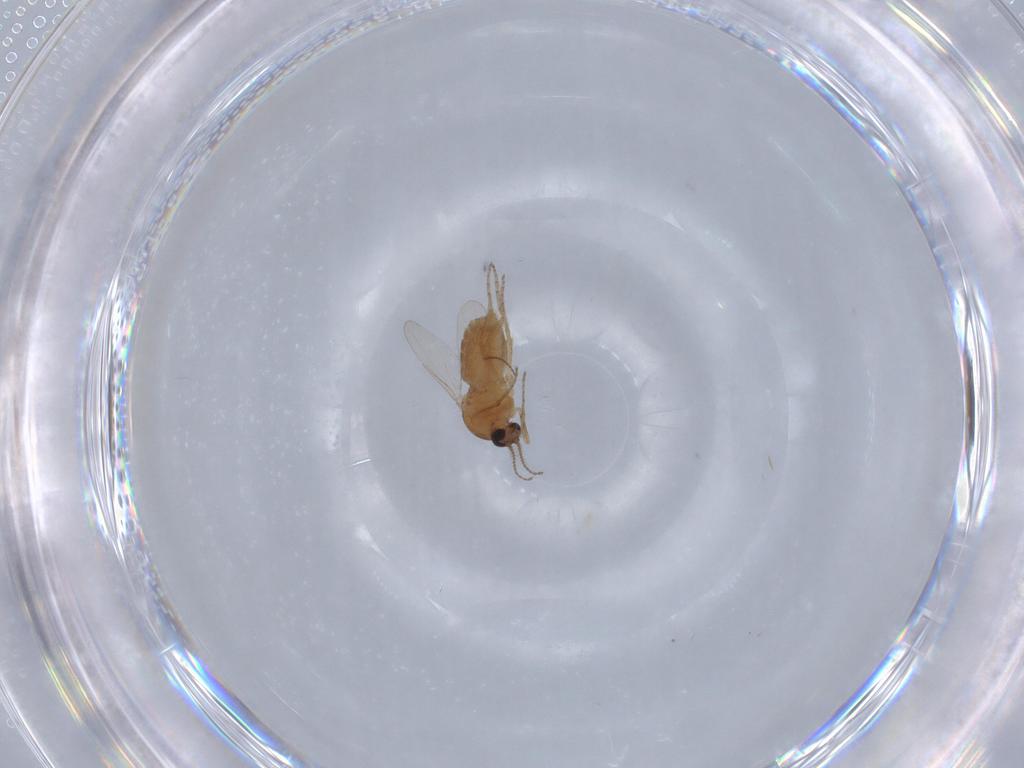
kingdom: Animalia
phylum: Arthropoda
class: Insecta
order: Diptera
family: Ceratopogonidae
